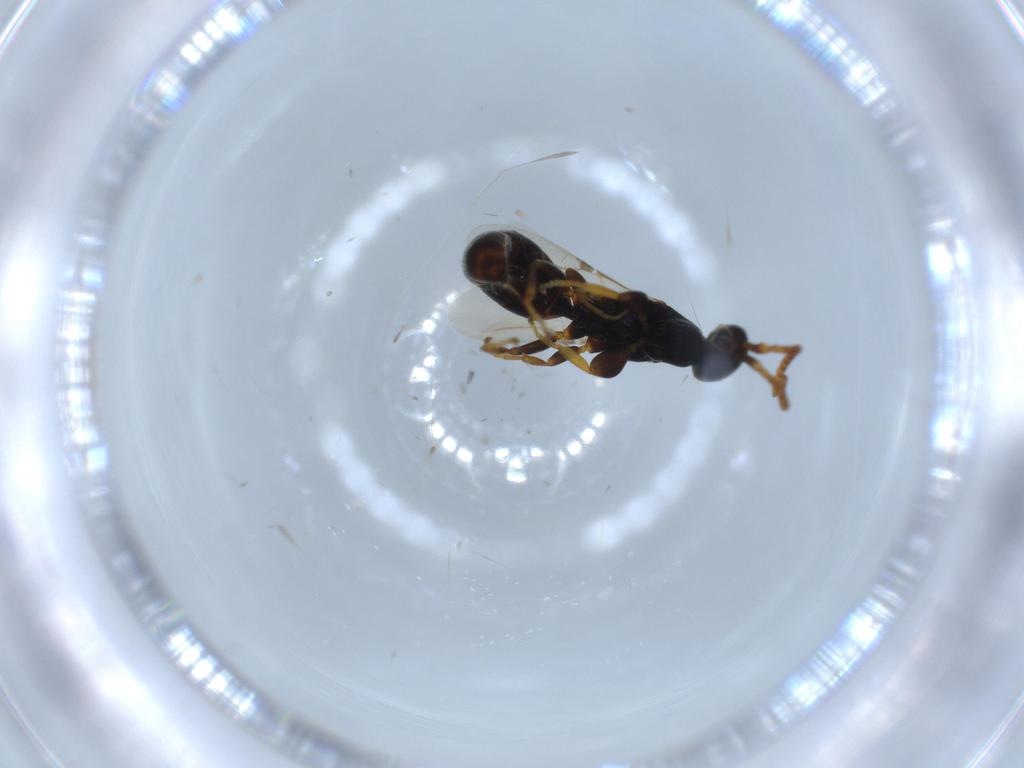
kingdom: Animalia
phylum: Arthropoda
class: Insecta
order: Hymenoptera
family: Bethylidae
